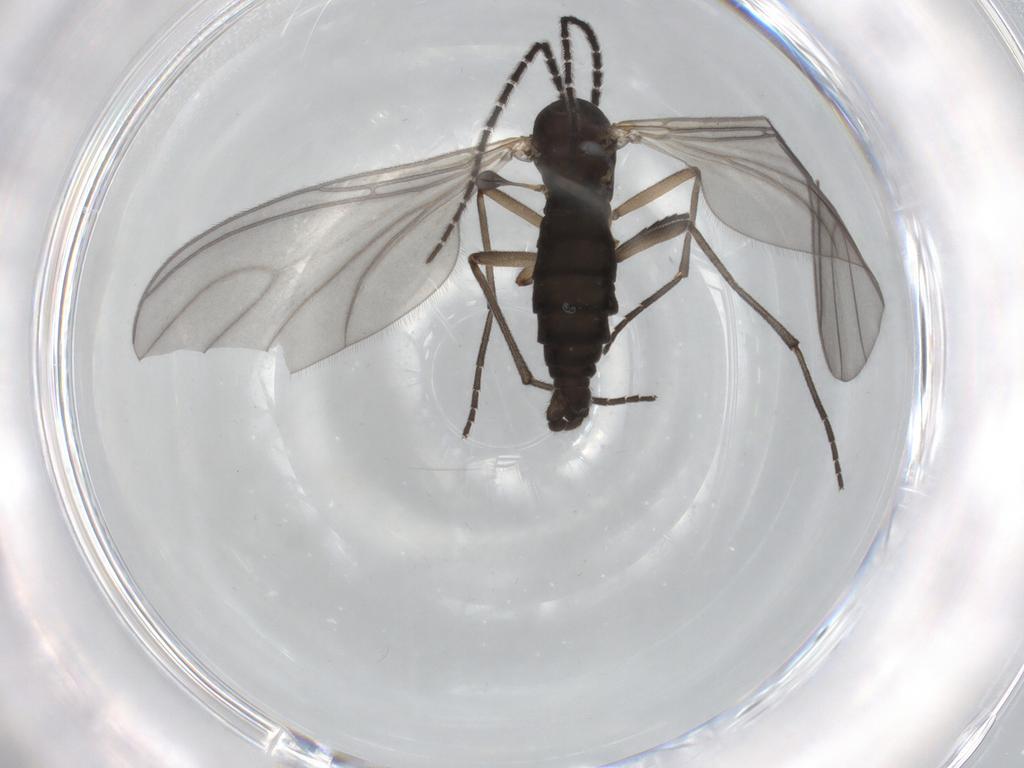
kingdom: Animalia
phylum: Arthropoda
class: Insecta
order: Diptera
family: Sciaridae
